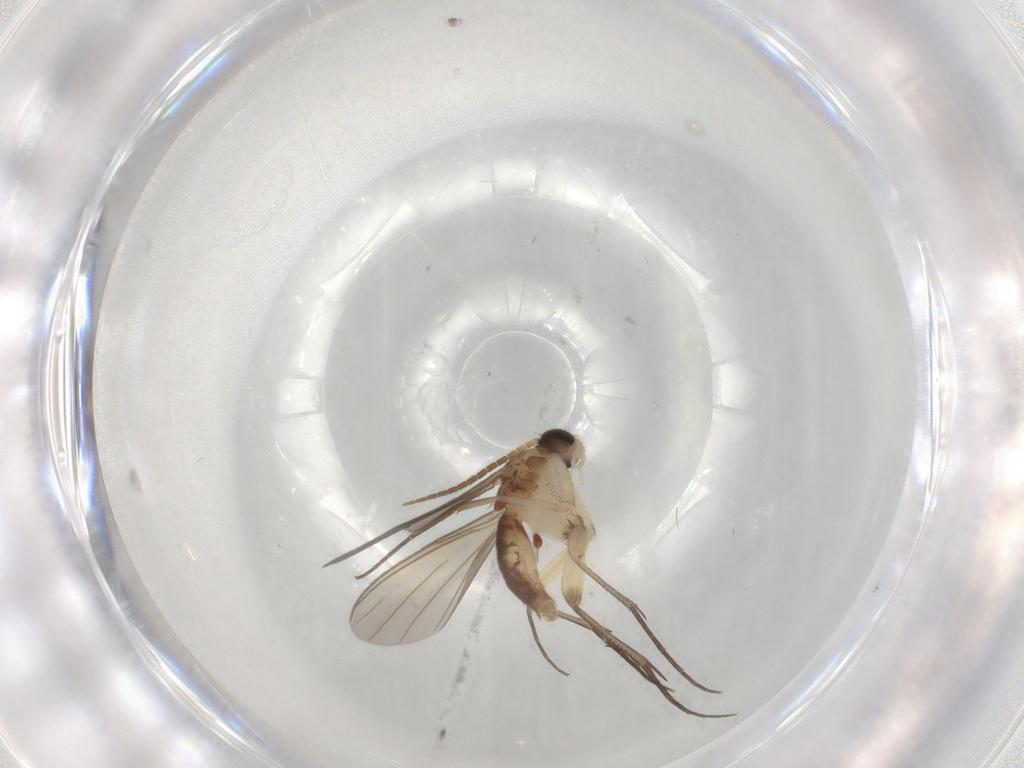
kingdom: Animalia
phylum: Arthropoda
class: Insecta
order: Diptera
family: Mycetophilidae
